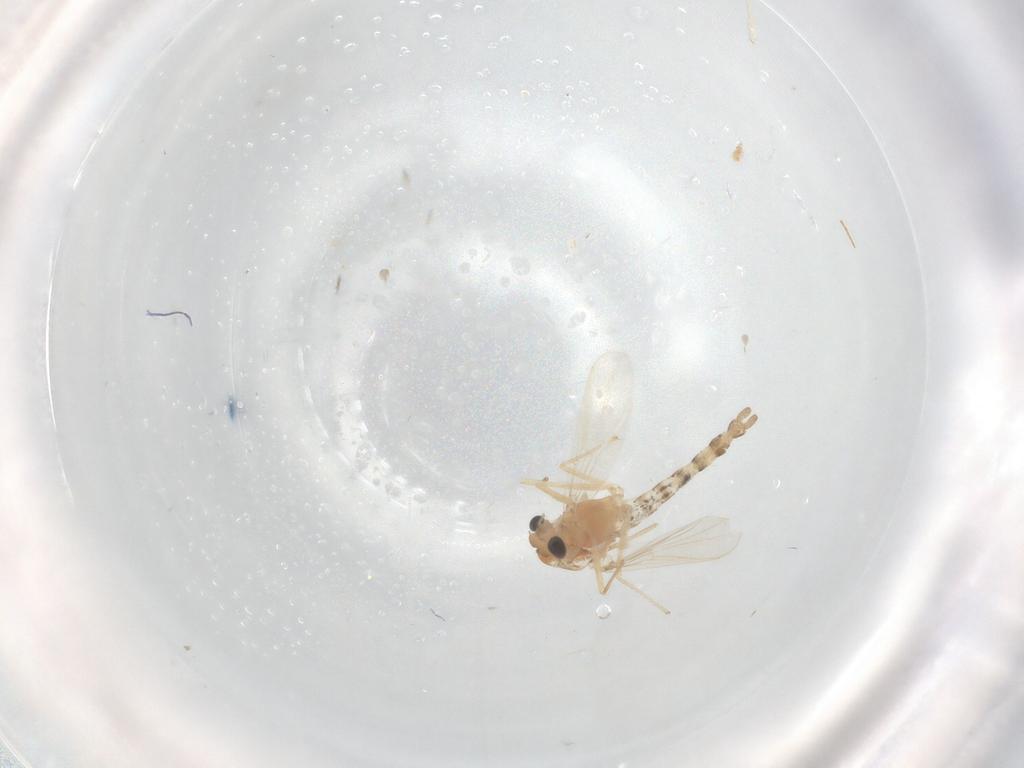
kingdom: Animalia
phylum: Arthropoda
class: Insecta
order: Diptera
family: Chironomidae
